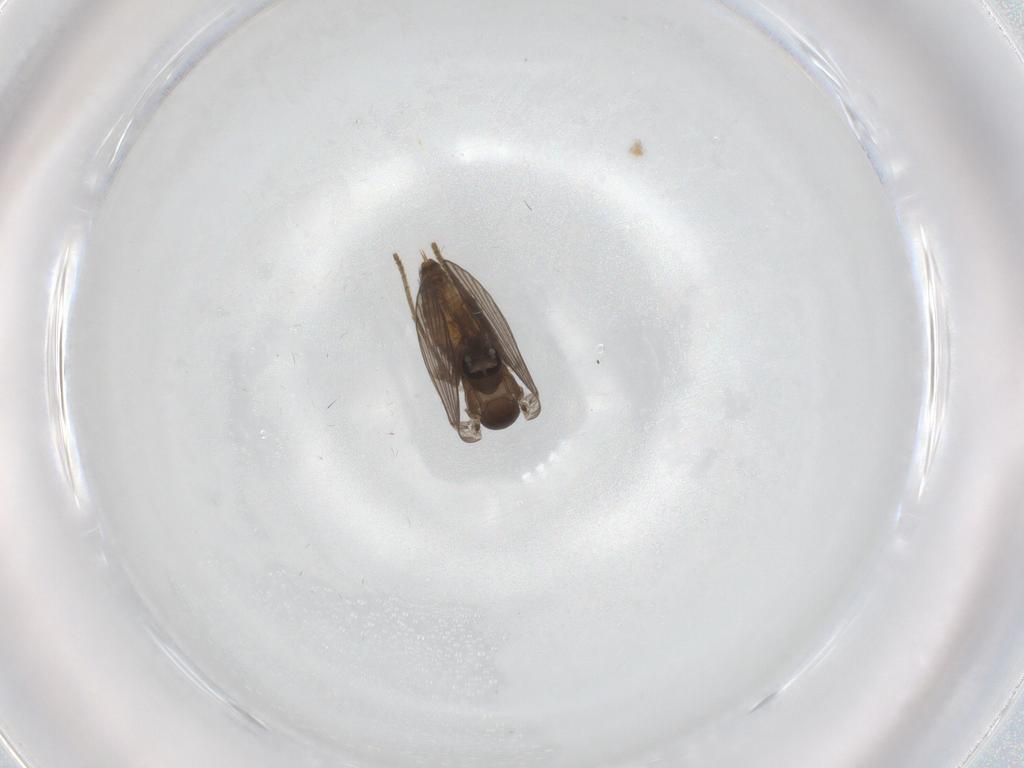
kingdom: Animalia
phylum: Arthropoda
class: Insecta
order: Diptera
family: Psychodidae
